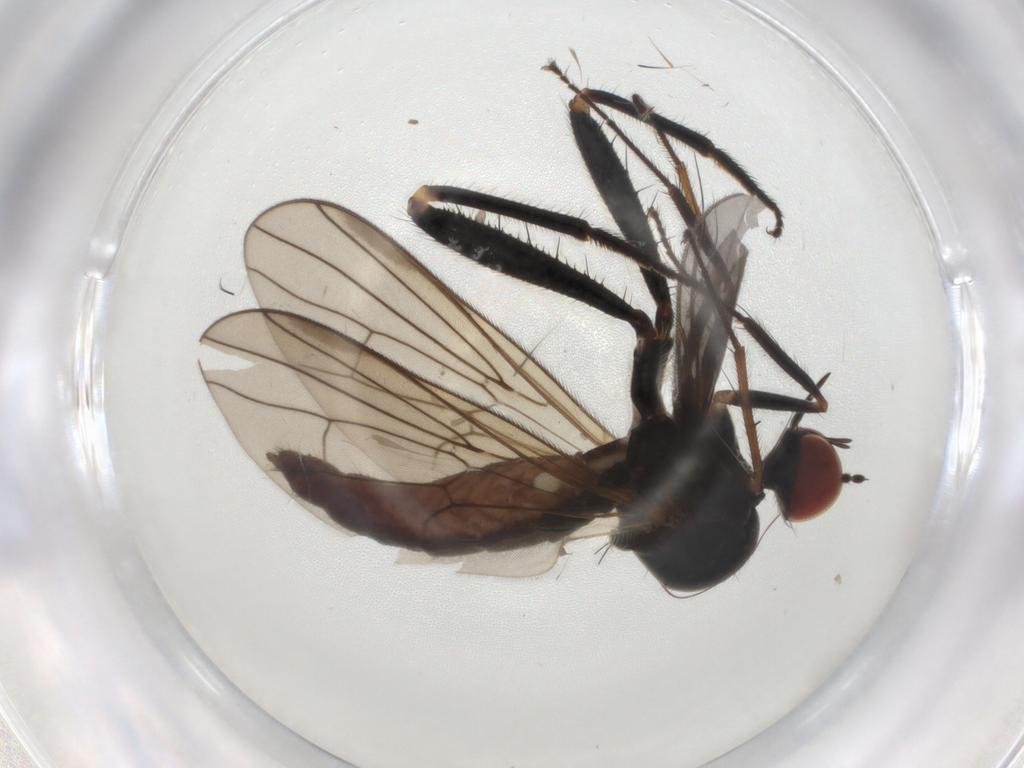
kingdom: Animalia
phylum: Arthropoda
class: Insecta
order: Diptera
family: Hybotidae
